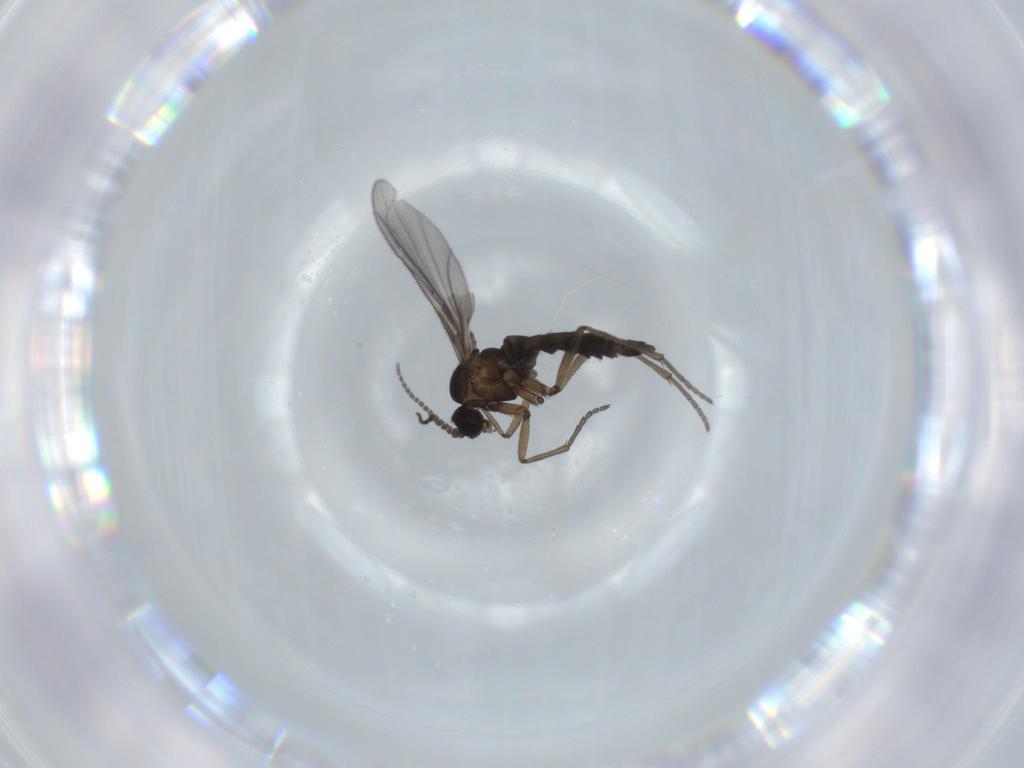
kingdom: Animalia
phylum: Arthropoda
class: Insecta
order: Diptera
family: Sciaridae
